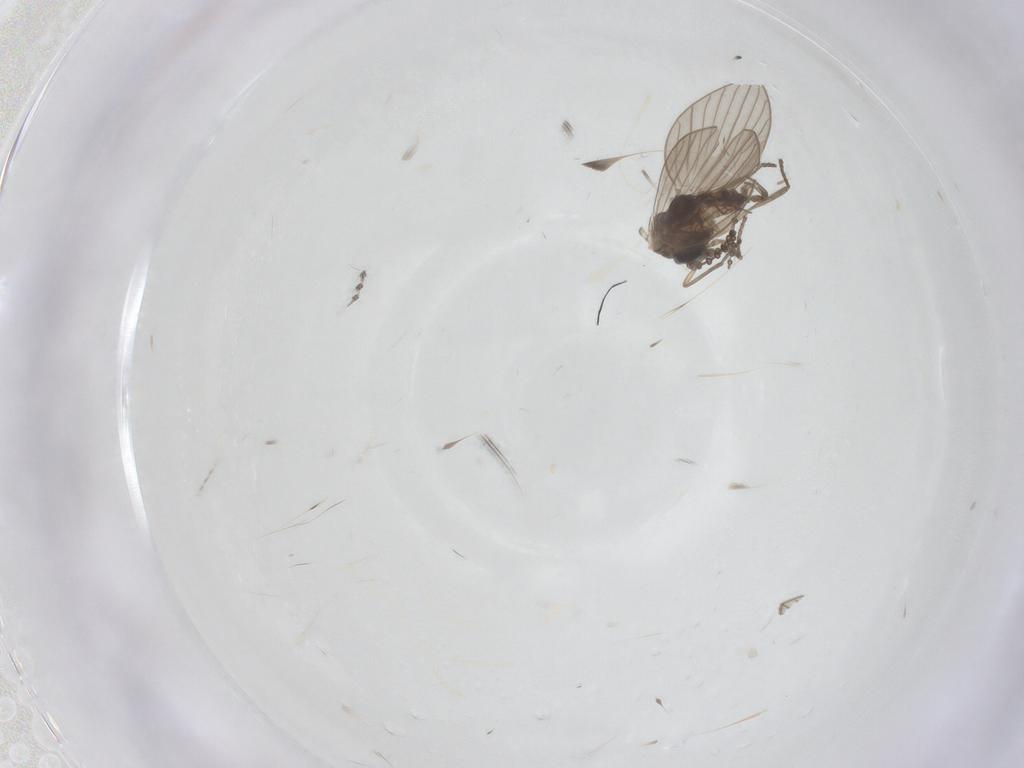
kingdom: Animalia
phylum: Arthropoda
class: Insecta
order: Diptera
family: Psychodidae
